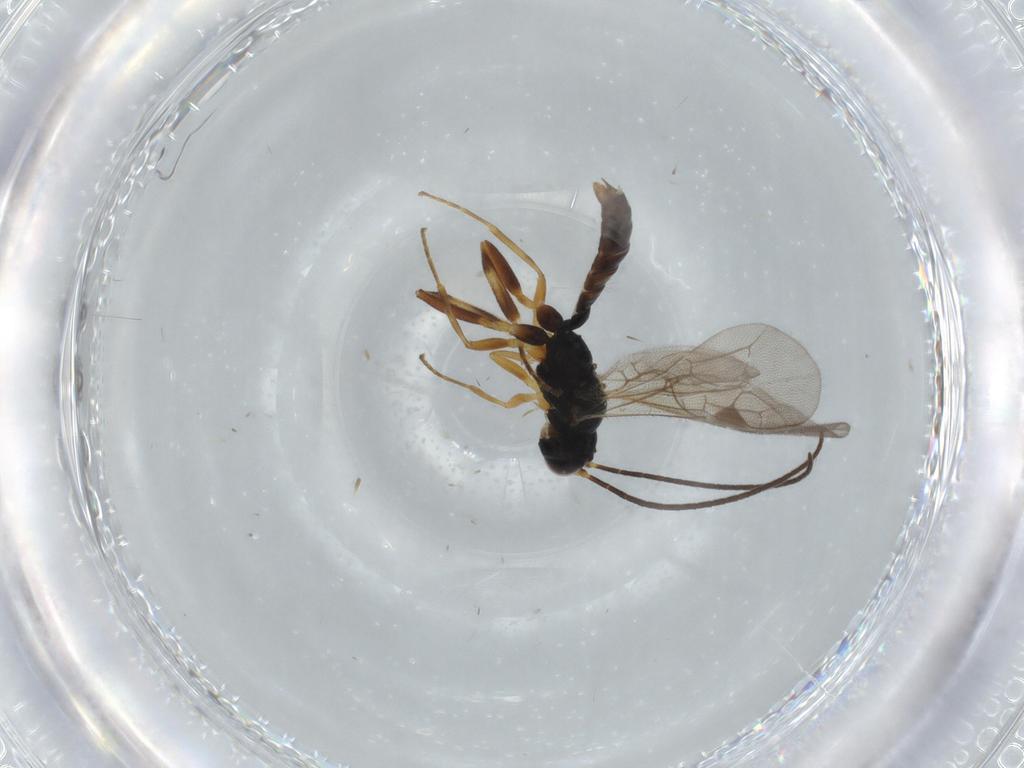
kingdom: Animalia
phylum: Arthropoda
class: Insecta
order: Hymenoptera
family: Ichneumonidae
